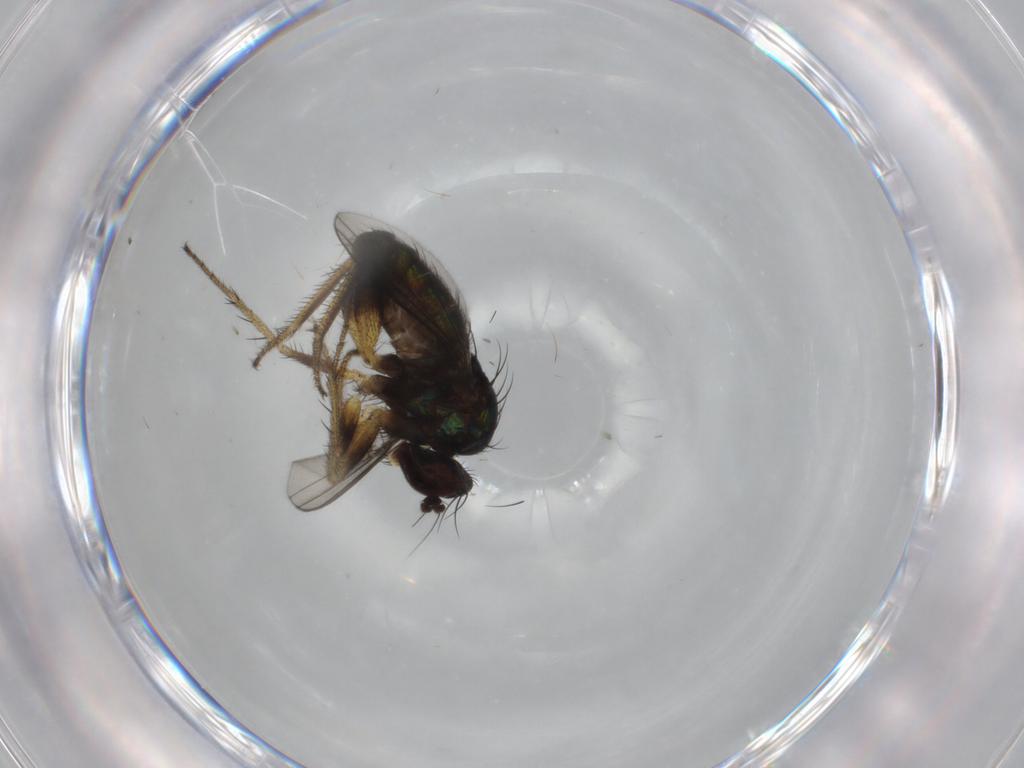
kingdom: Animalia
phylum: Arthropoda
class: Insecta
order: Diptera
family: Dolichopodidae
